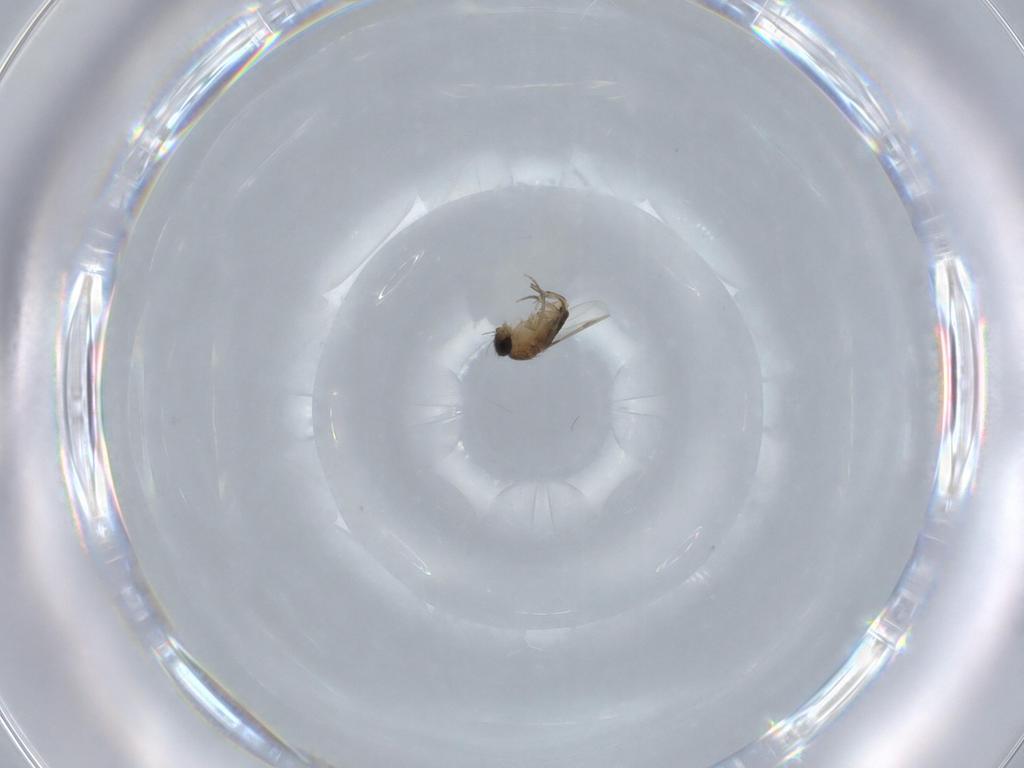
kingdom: Animalia
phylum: Arthropoda
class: Insecta
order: Diptera
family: Phoridae
